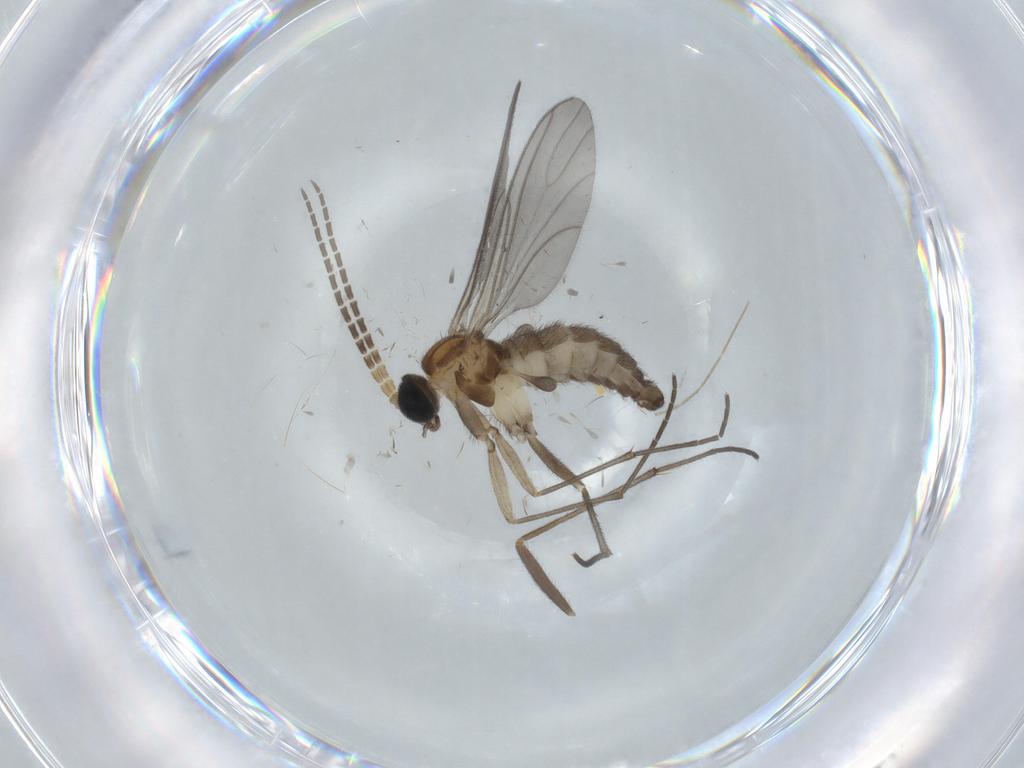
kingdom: Animalia
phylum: Arthropoda
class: Insecta
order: Diptera
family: Sciaridae
